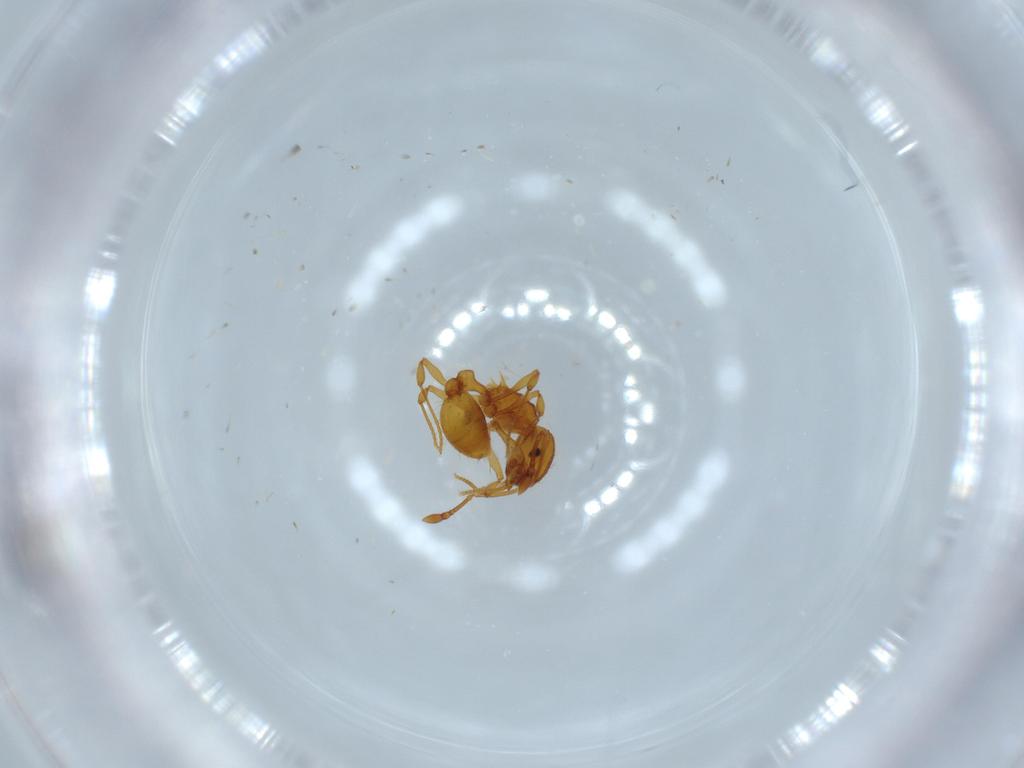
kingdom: Animalia
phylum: Arthropoda
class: Insecta
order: Hymenoptera
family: Formicidae
